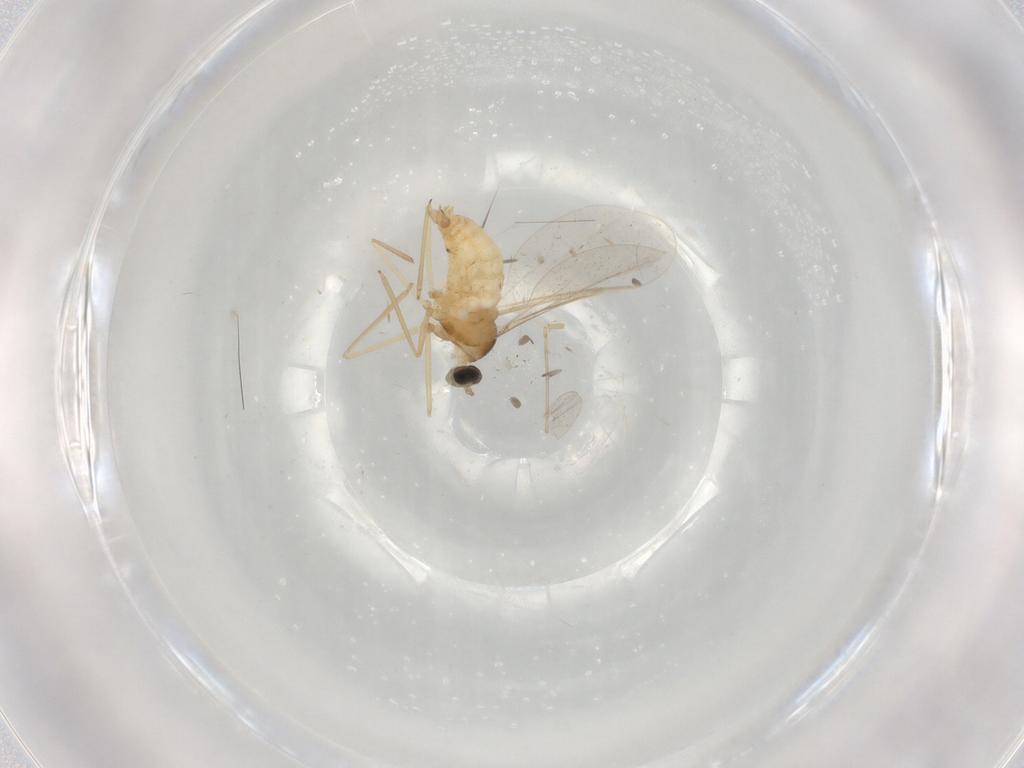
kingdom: Animalia
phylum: Arthropoda
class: Insecta
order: Diptera
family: Cecidomyiidae
